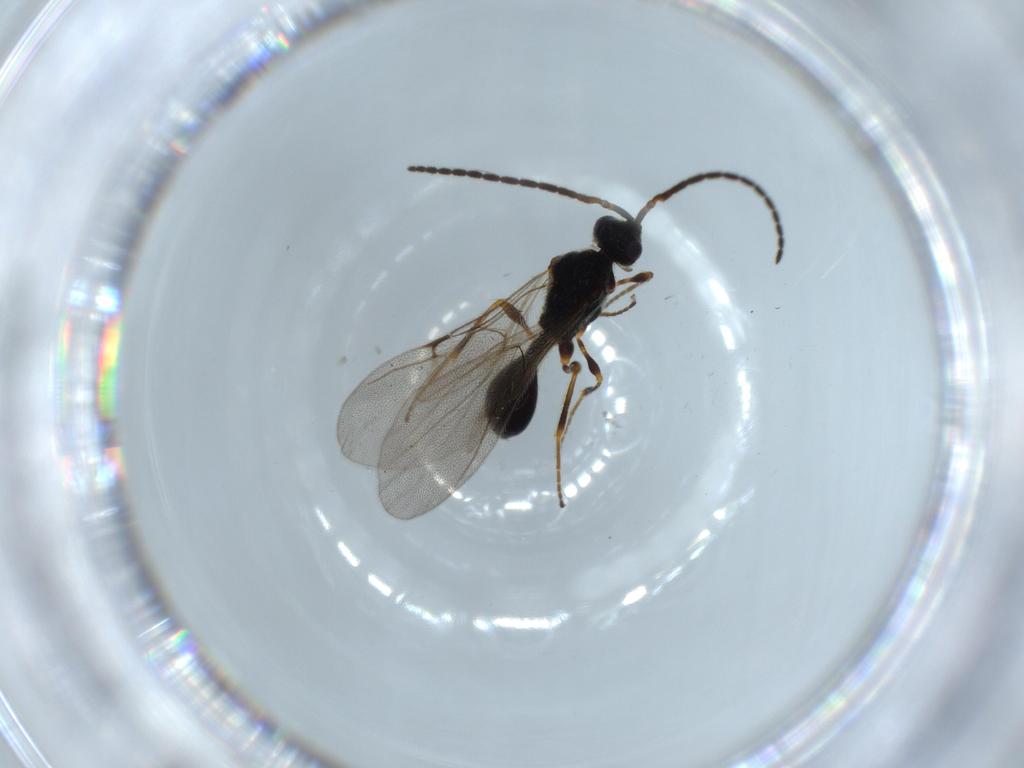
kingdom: Animalia
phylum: Arthropoda
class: Insecta
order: Hymenoptera
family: Diapriidae
